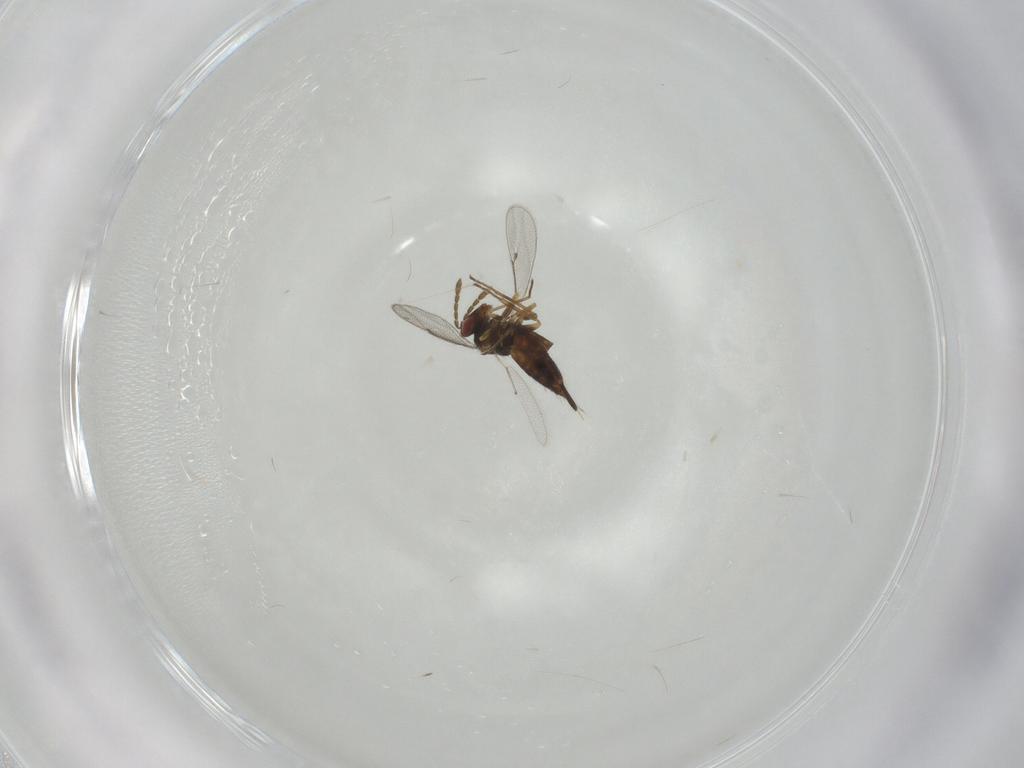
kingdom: Animalia
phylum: Arthropoda
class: Insecta
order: Hymenoptera
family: Eulophidae
